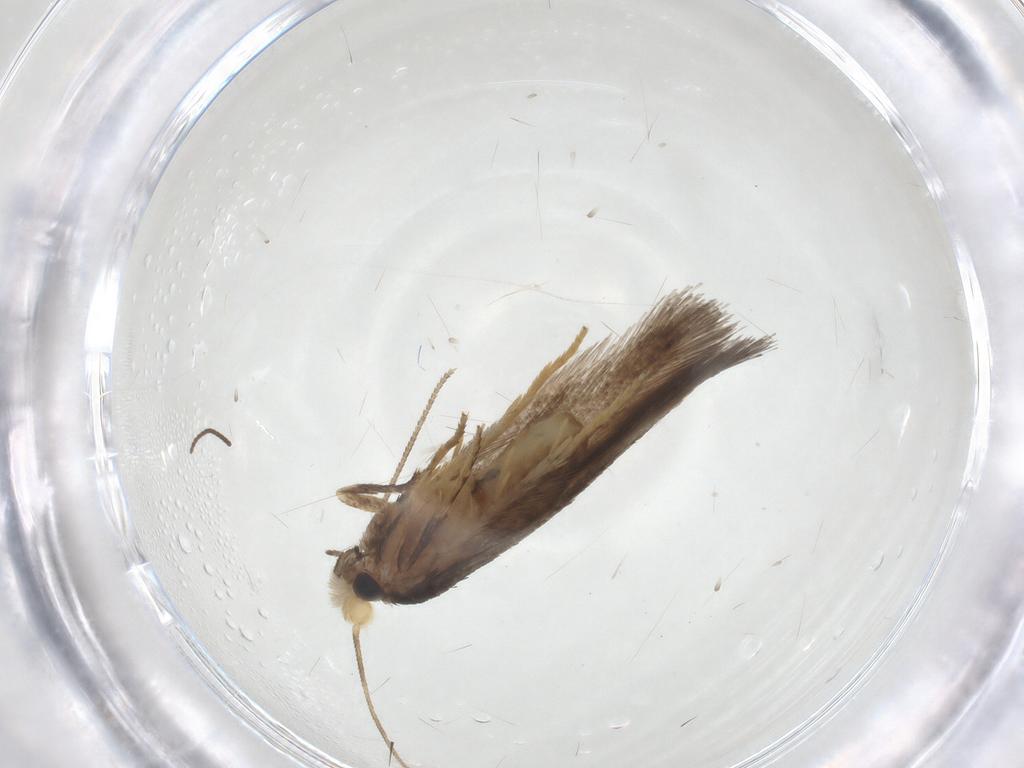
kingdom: Animalia
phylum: Arthropoda
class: Insecta
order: Lepidoptera
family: Nepticulidae
